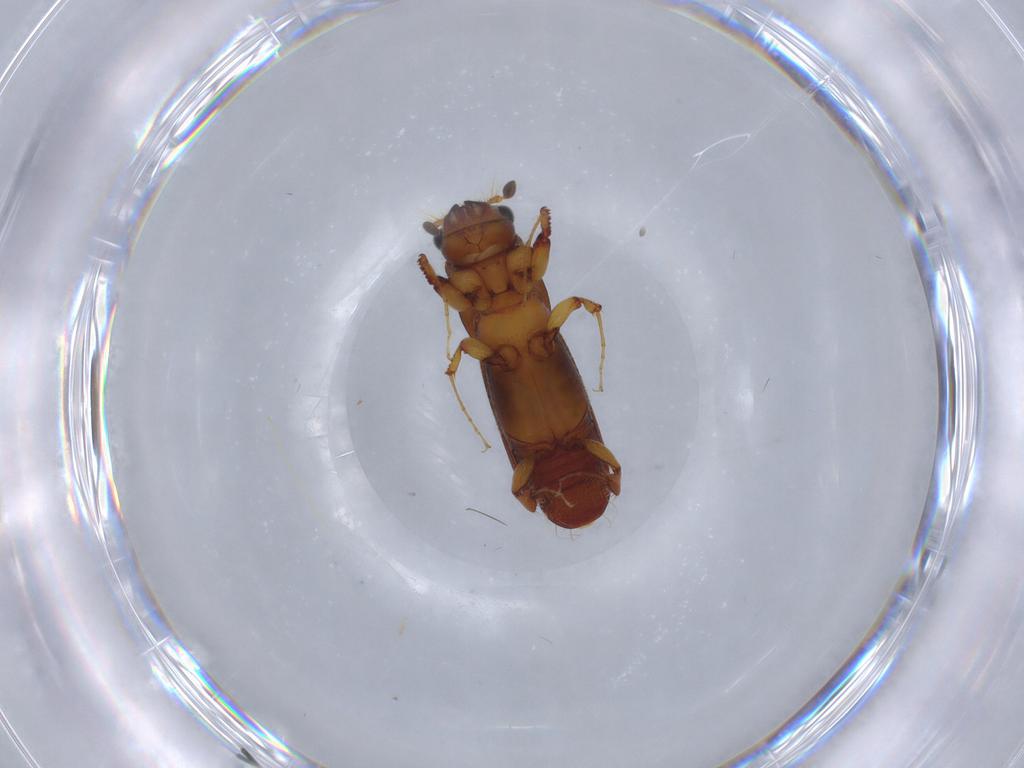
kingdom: Animalia
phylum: Arthropoda
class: Insecta
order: Coleoptera
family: Curculionidae
